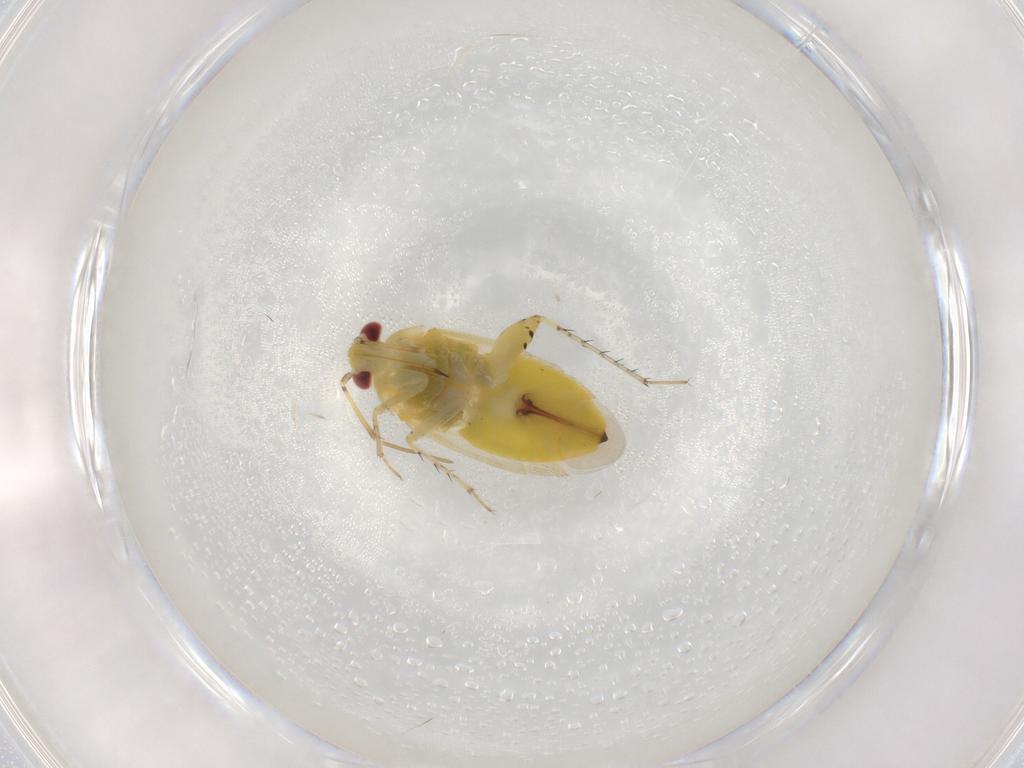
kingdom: Animalia
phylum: Arthropoda
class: Insecta
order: Hemiptera
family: Miridae
